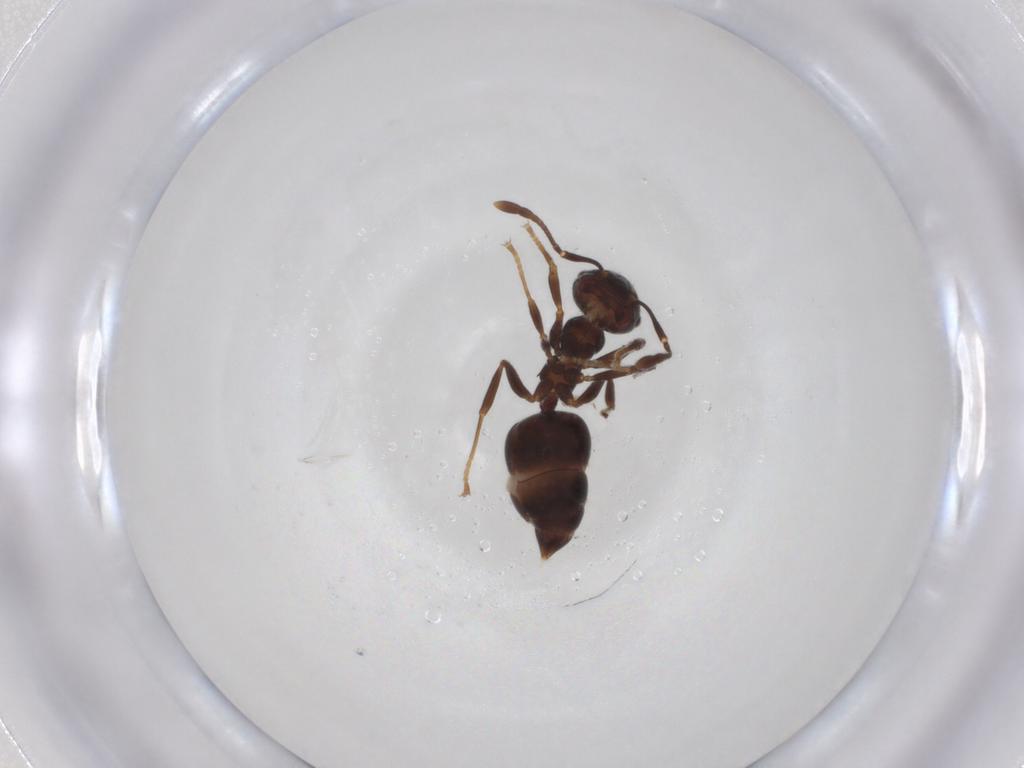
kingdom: Animalia
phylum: Arthropoda
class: Insecta
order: Hymenoptera
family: Formicidae
